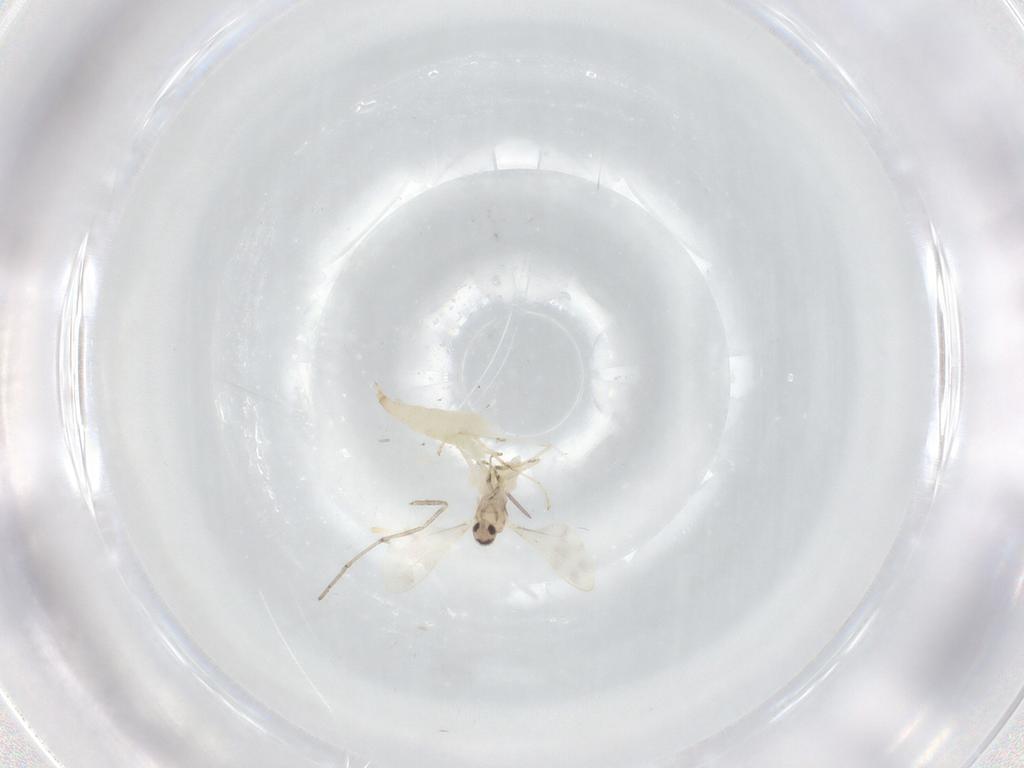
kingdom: Animalia
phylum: Arthropoda
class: Insecta
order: Diptera
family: Cecidomyiidae
